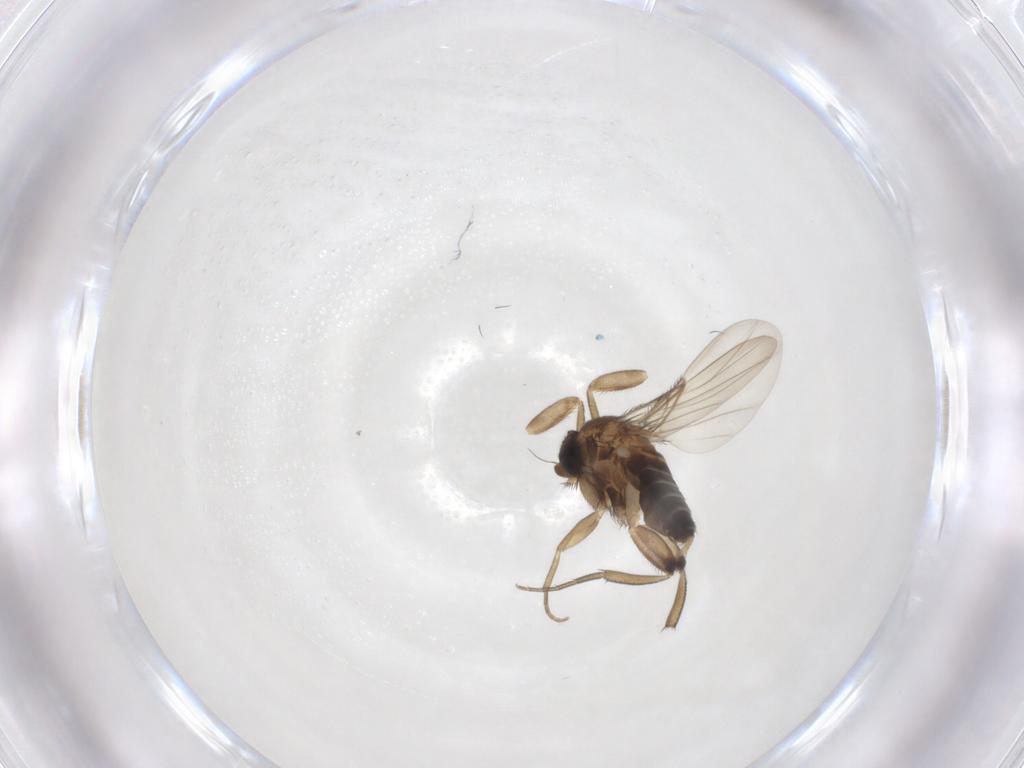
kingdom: Animalia
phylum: Arthropoda
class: Insecta
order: Diptera
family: Phoridae
